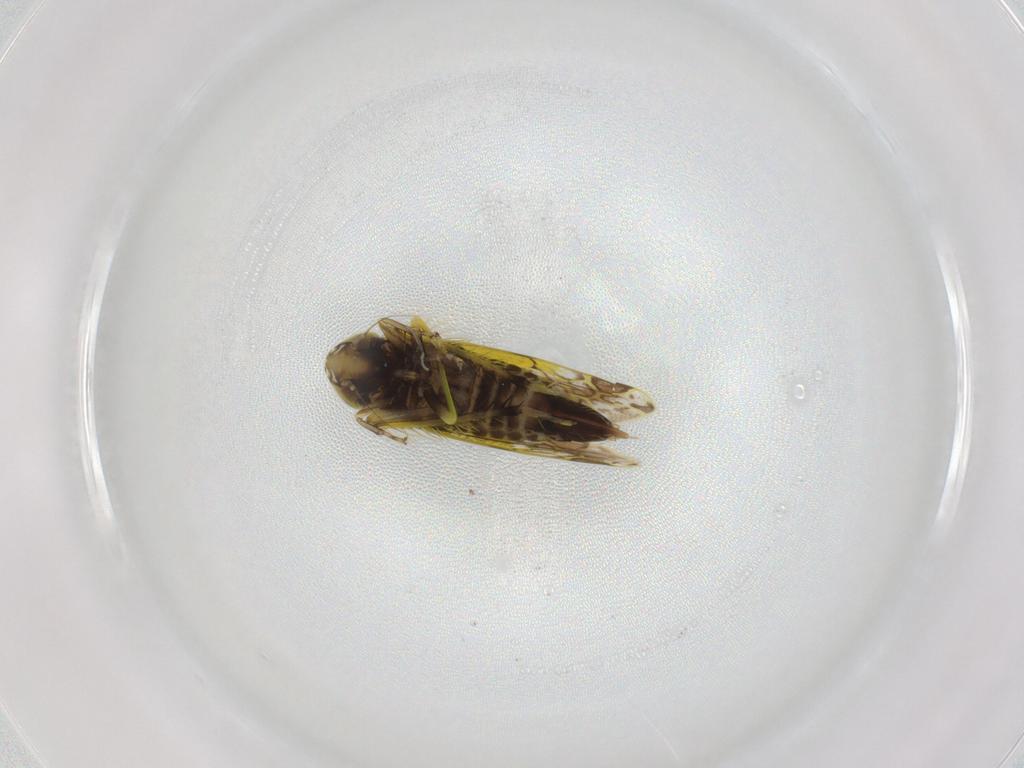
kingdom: Animalia
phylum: Arthropoda
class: Insecta
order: Hemiptera
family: Cicadellidae
